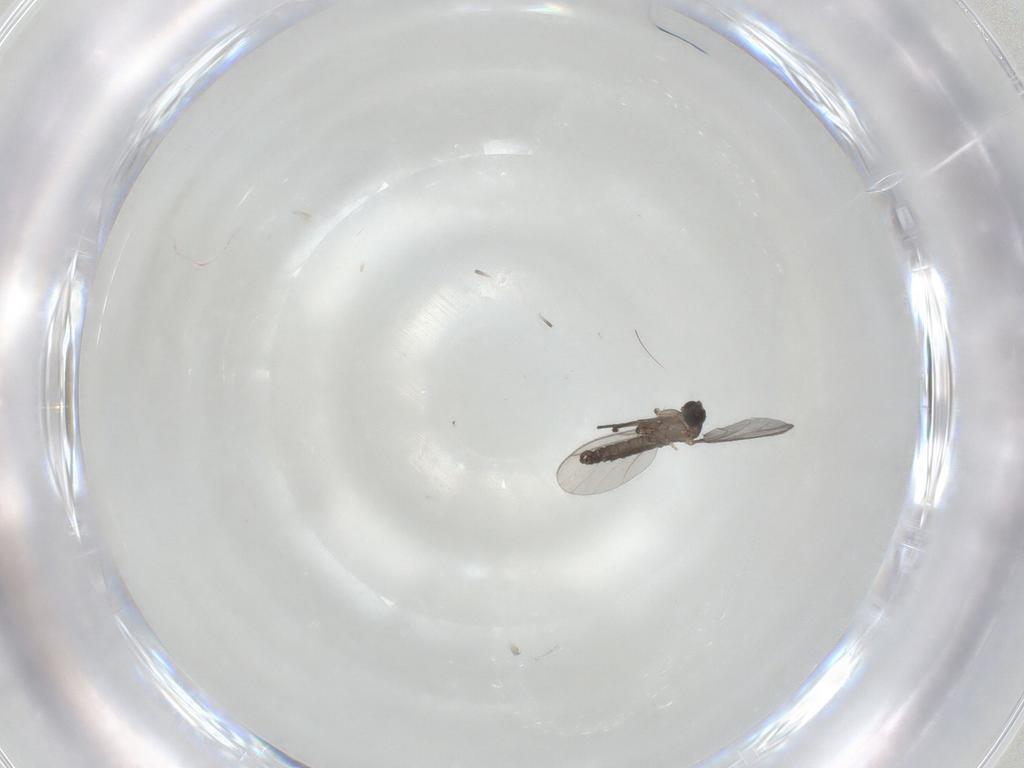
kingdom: Animalia
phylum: Arthropoda
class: Insecta
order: Diptera
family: Cecidomyiidae
